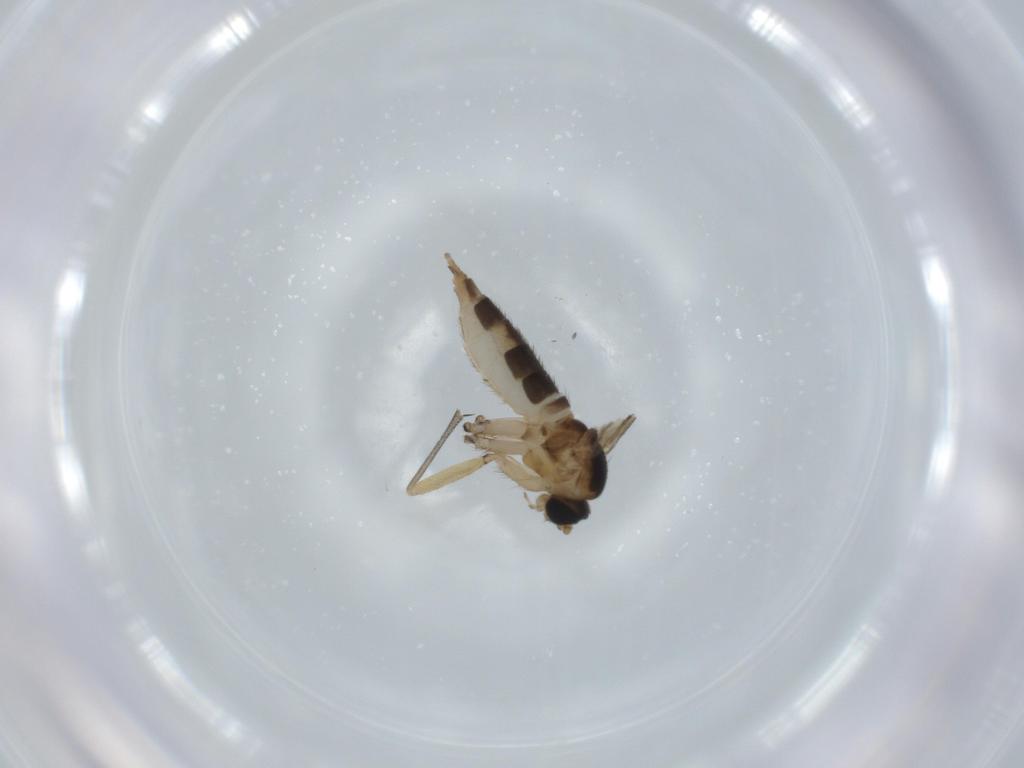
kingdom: Animalia
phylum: Arthropoda
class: Insecta
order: Diptera
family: Sciaridae
